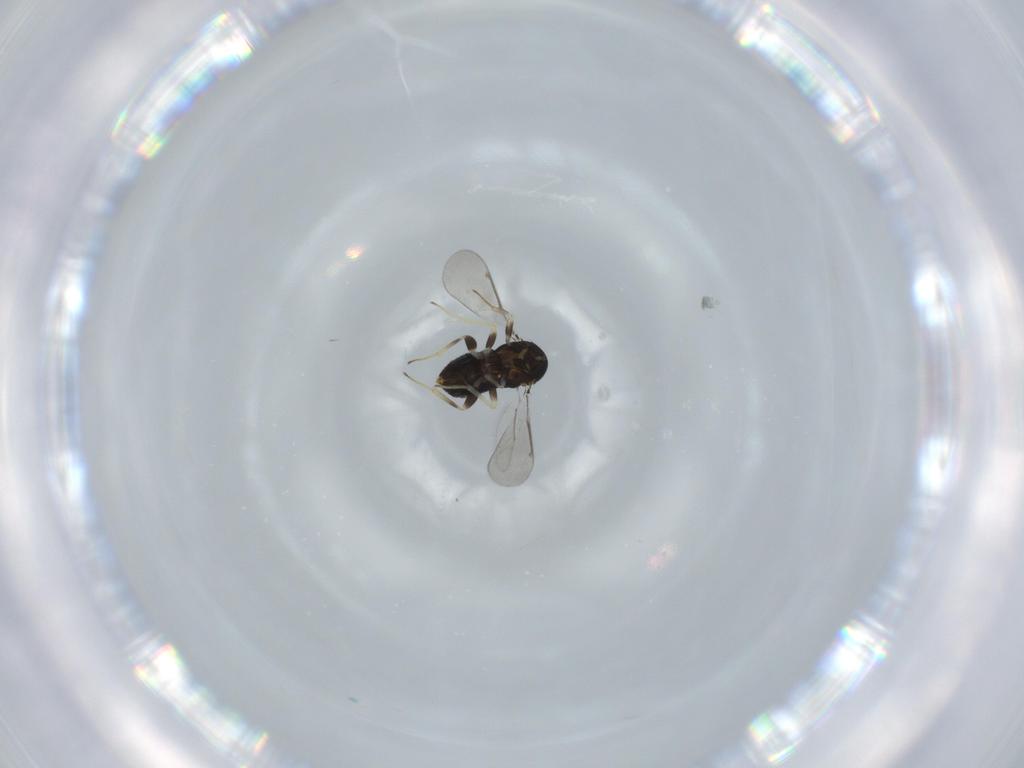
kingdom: Animalia
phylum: Arthropoda
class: Insecta
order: Hymenoptera
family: Aphelinidae
